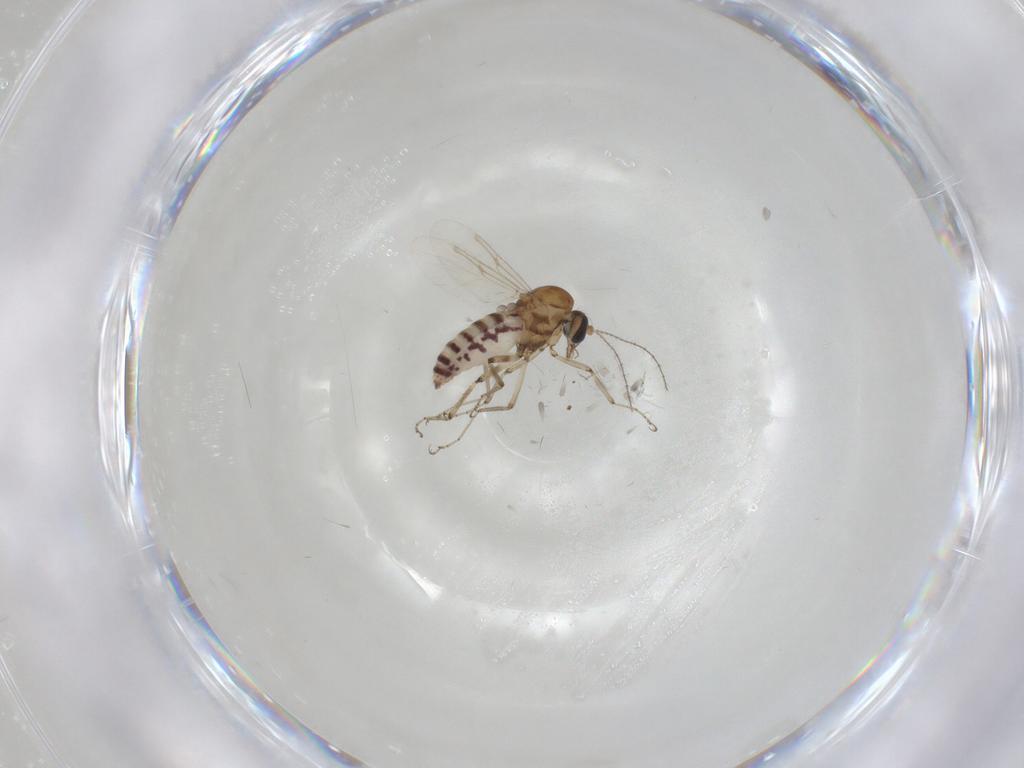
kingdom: Animalia
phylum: Arthropoda
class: Insecta
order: Diptera
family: Ceratopogonidae
